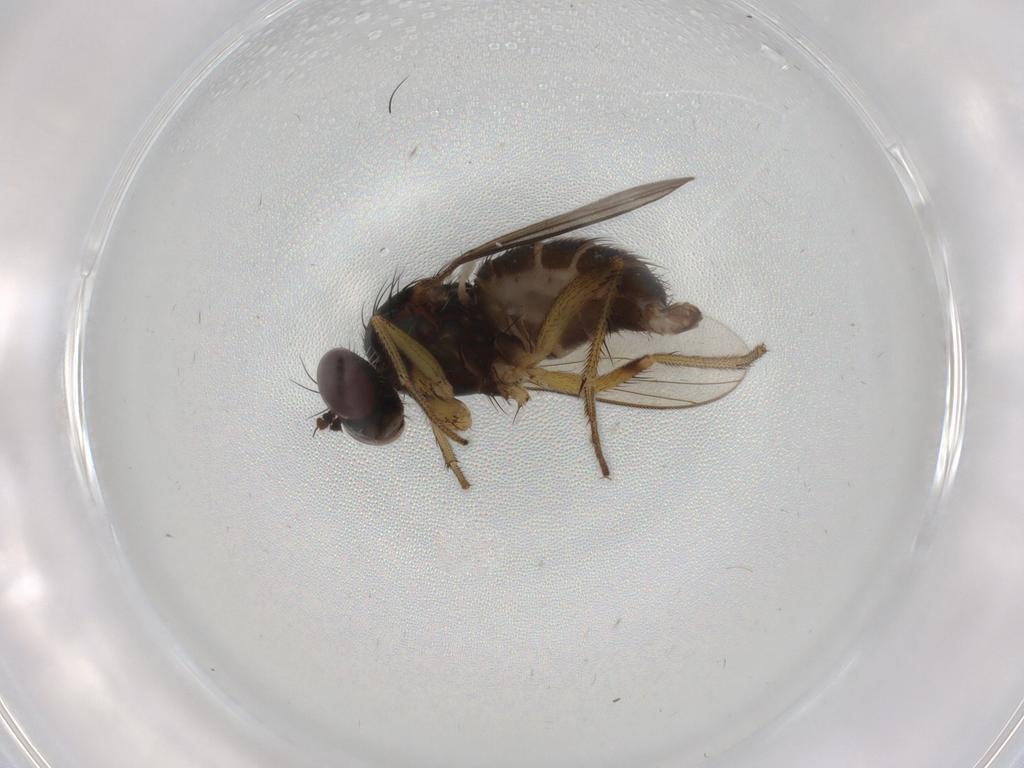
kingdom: Animalia
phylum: Arthropoda
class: Insecta
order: Diptera
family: Dolichopodidae
